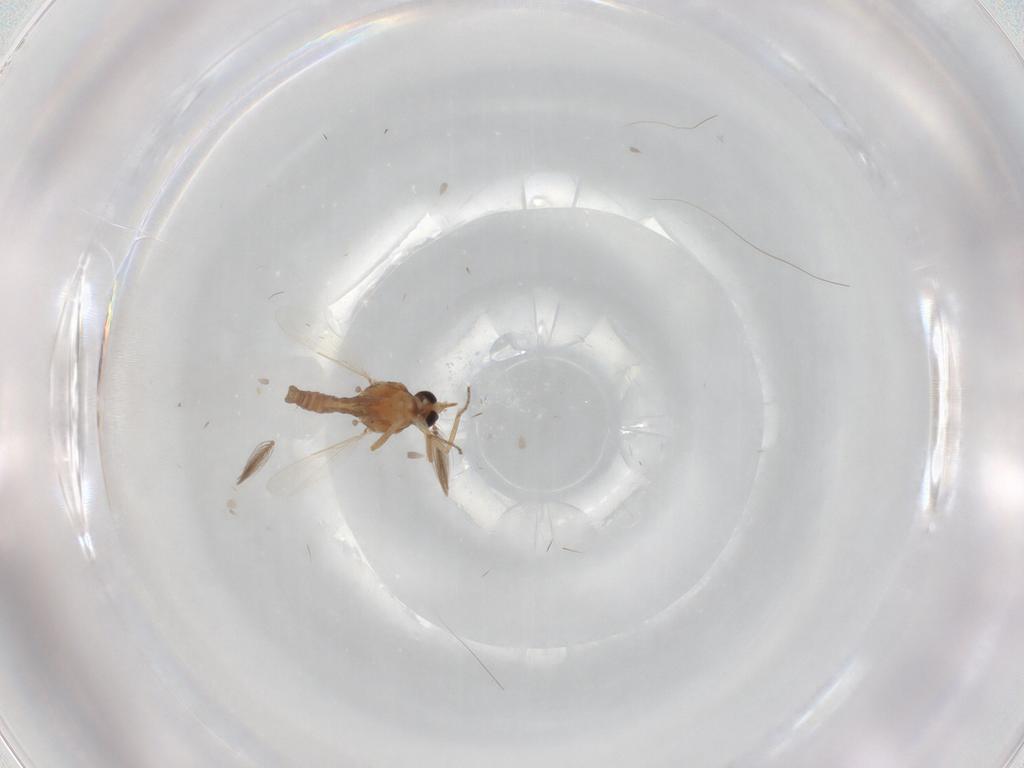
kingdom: Animalia
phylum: Arthropoda
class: Insecta
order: Diptera
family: Ceratopogonidae
